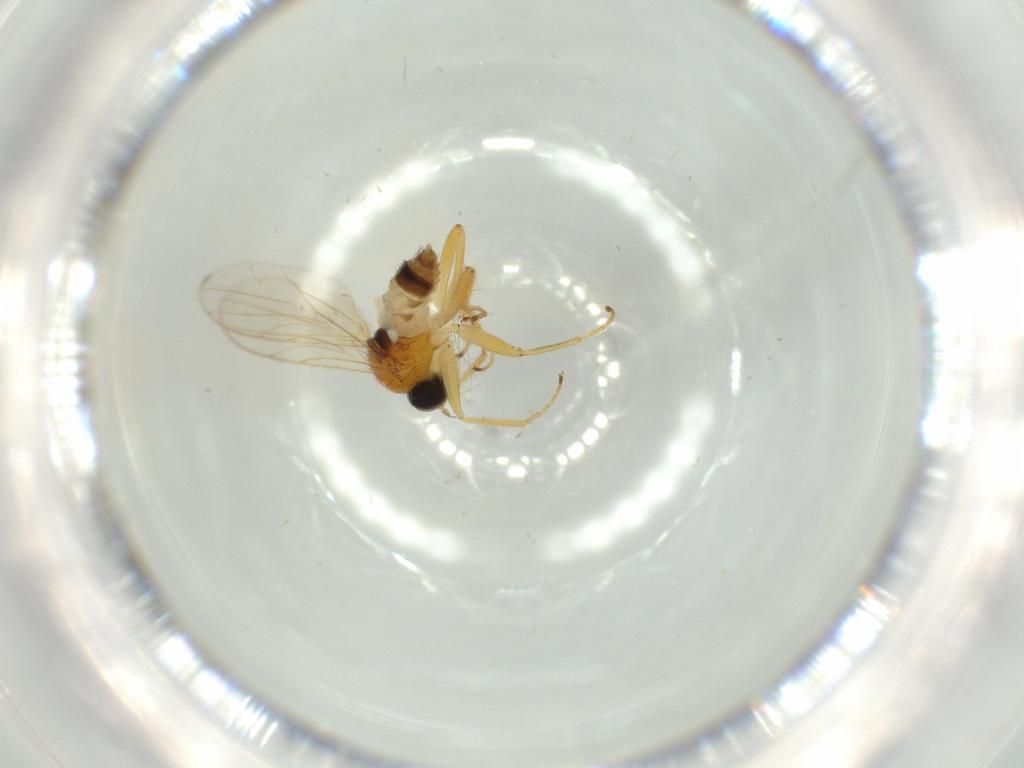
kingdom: Animalia
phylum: Arthropoda
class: Insecta
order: Diptera
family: Hybotidae
